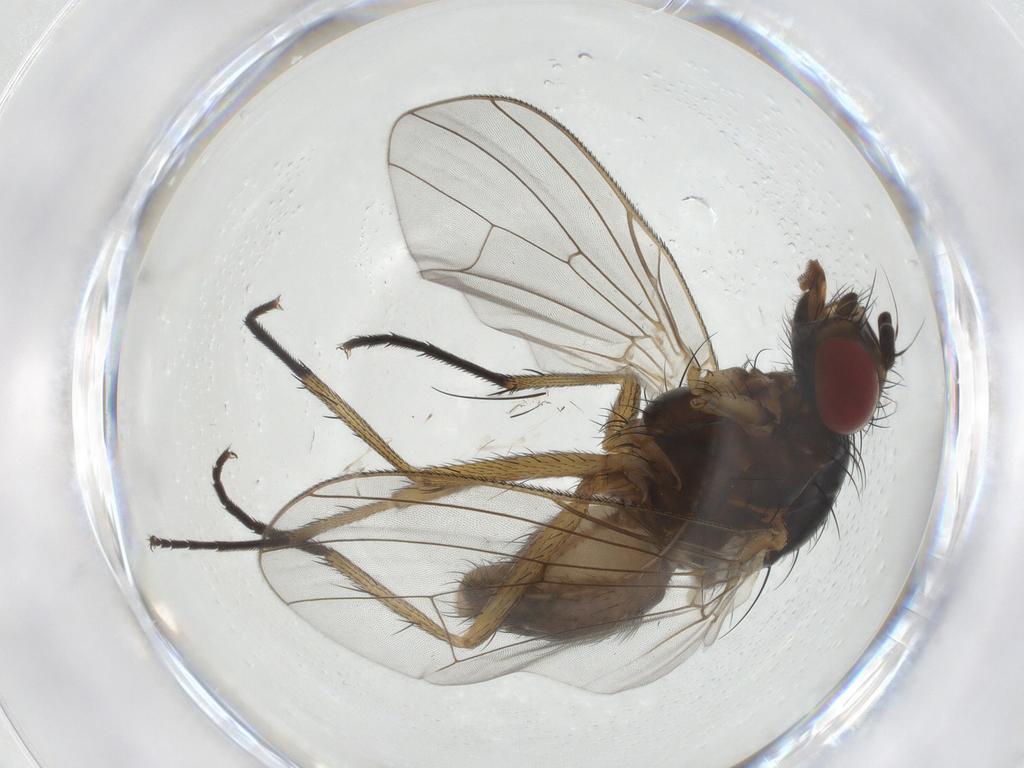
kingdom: Animalia
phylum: Arthropoda
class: Insecta
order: Diptera
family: Anthomyiidae
